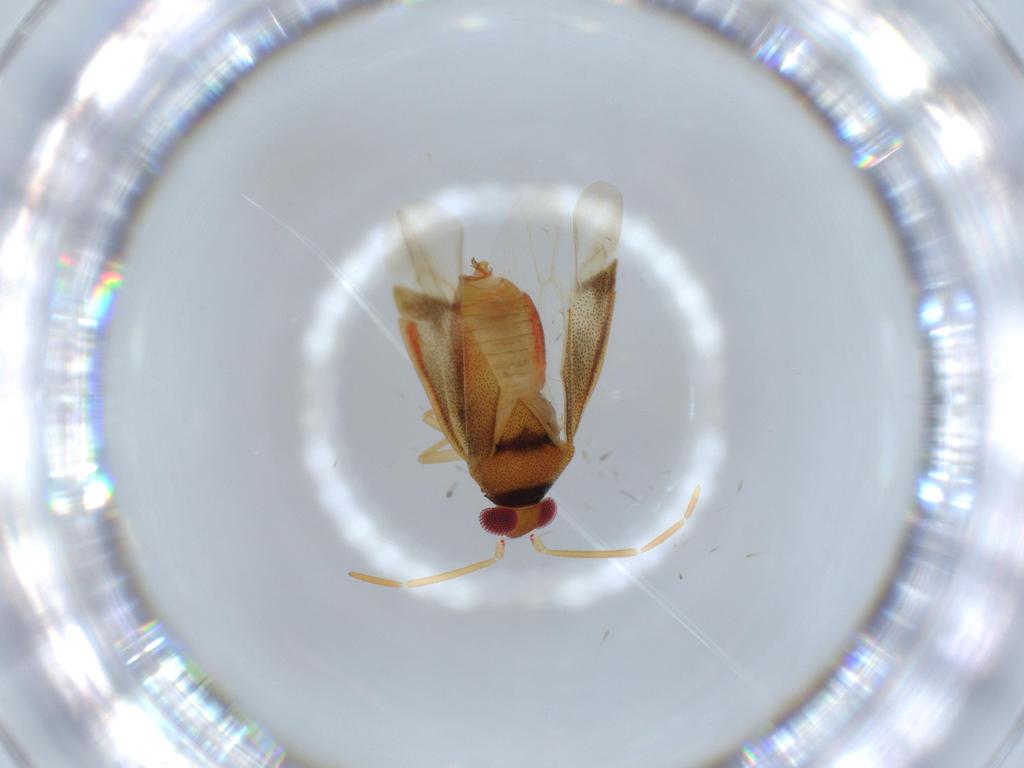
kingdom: Animalia
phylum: Arthropoda
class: Insecta
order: Hemiptera
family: Miridae
